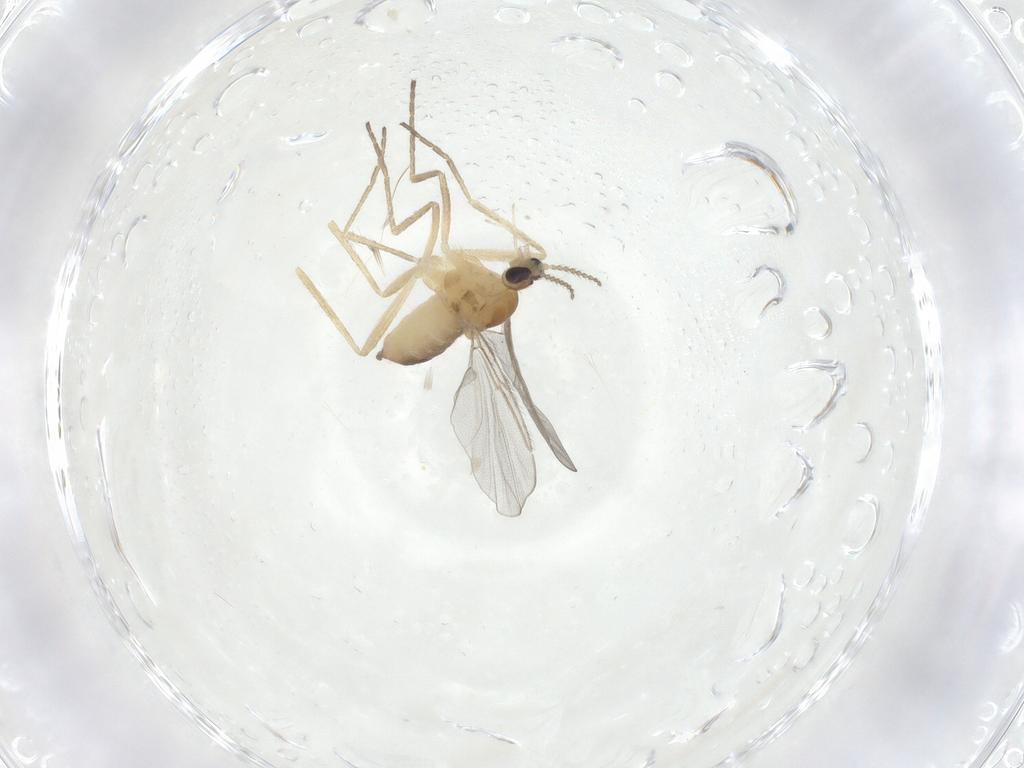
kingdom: Animalia
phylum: Arthropoda
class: Insecta
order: Diptera
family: Cecidomyiidae
